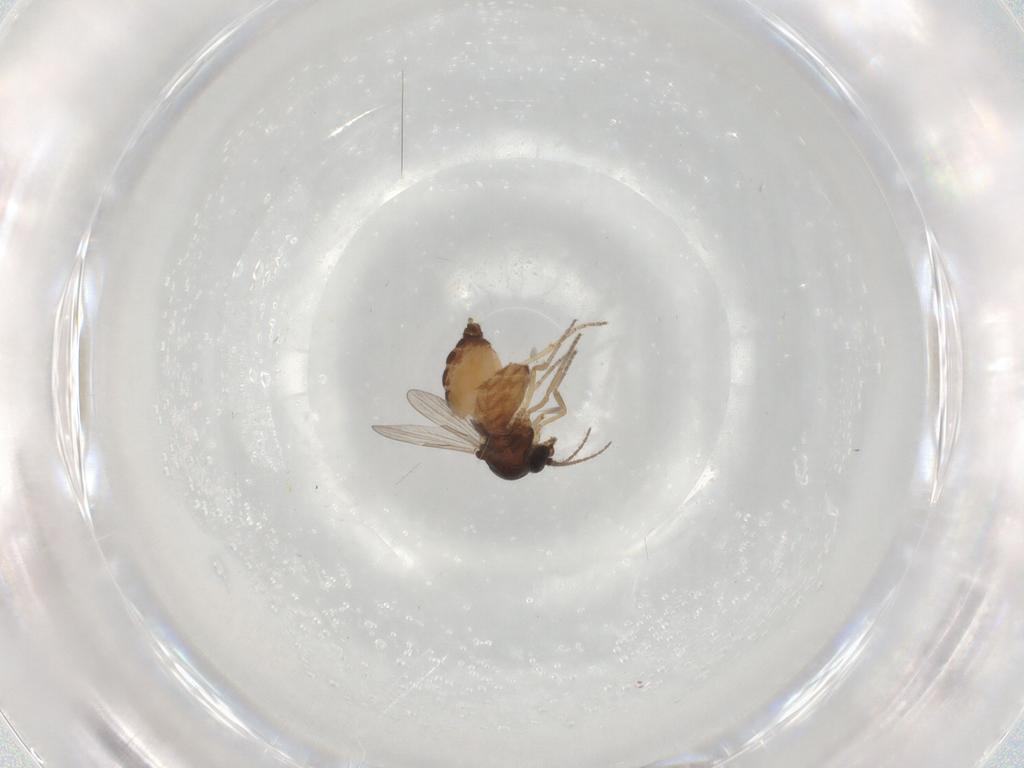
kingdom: Animalia
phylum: Arthropoda
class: Insecta
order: Diptera
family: Ceratopogonidae
